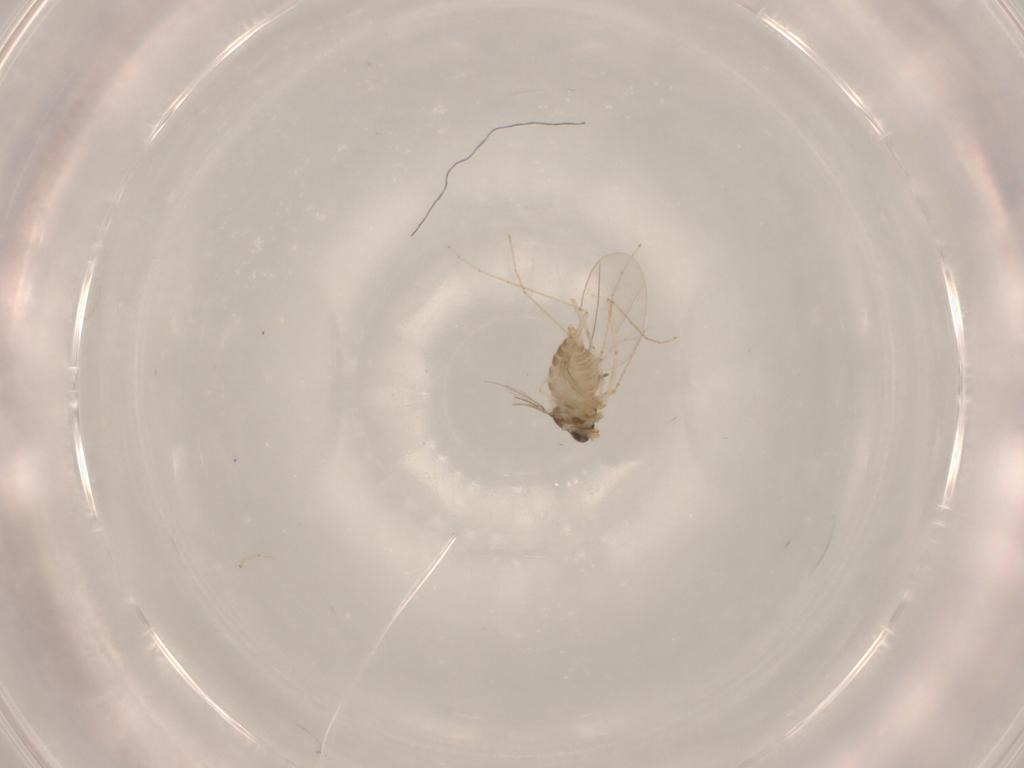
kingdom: Animalia
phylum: Arthropoda
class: Insecta
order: Diptera
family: Cecidomyiidae
